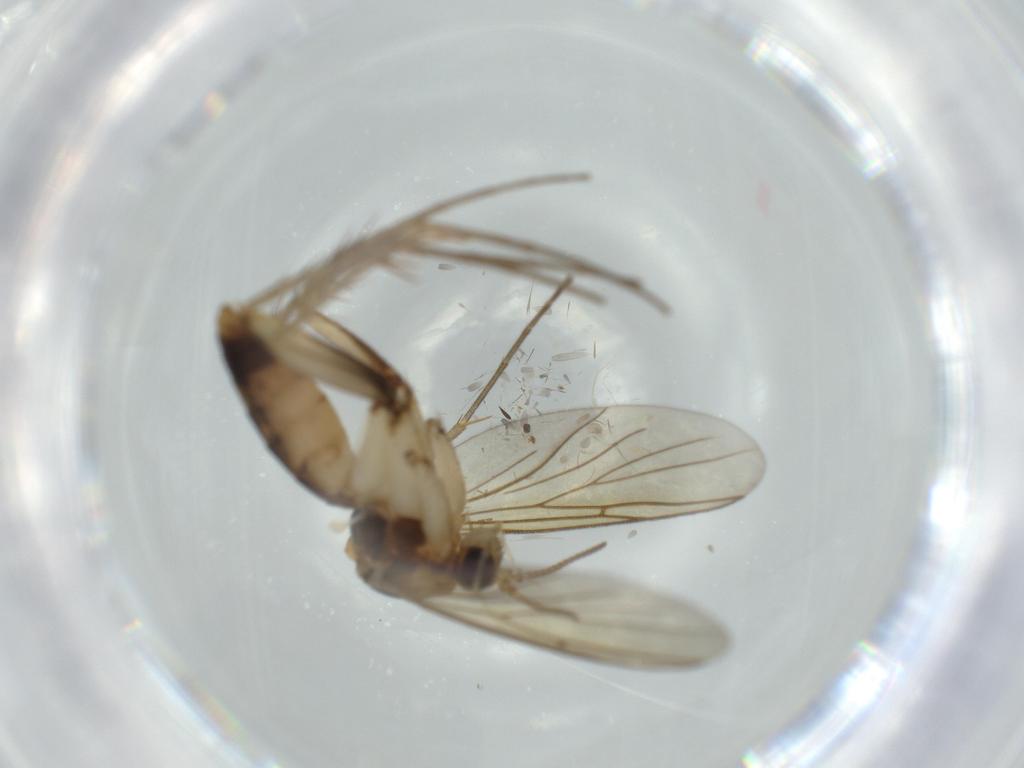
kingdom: Animalia
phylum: Arthropoda
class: Insecta
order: Diptera
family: Mycetophilidae
